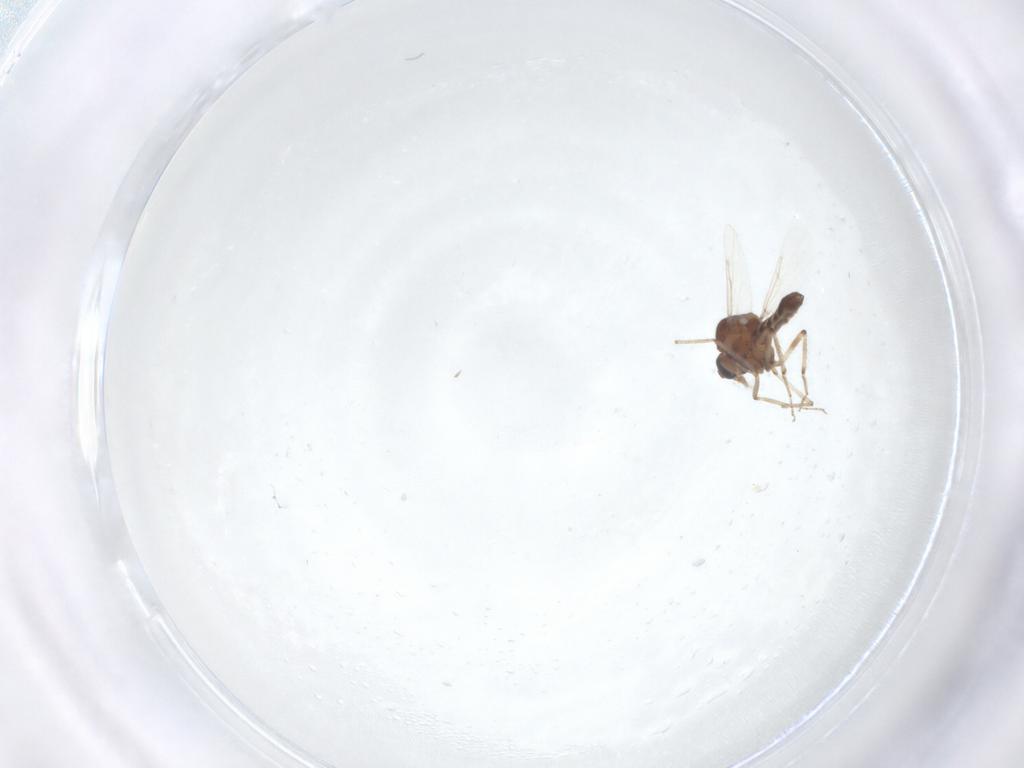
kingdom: Animalia
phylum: Arthropoda
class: Insecta
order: Diptera
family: Ceratopogonidae
